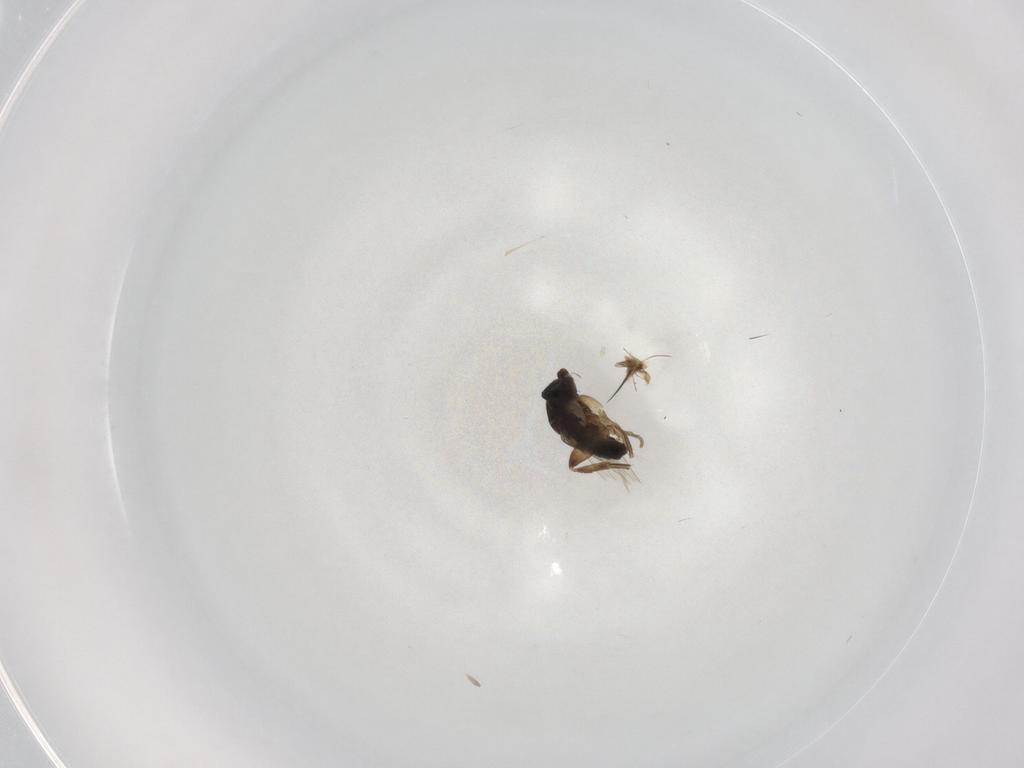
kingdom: Animalia
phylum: Arthropoda
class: Insecta
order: Diptera
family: Phoridae
